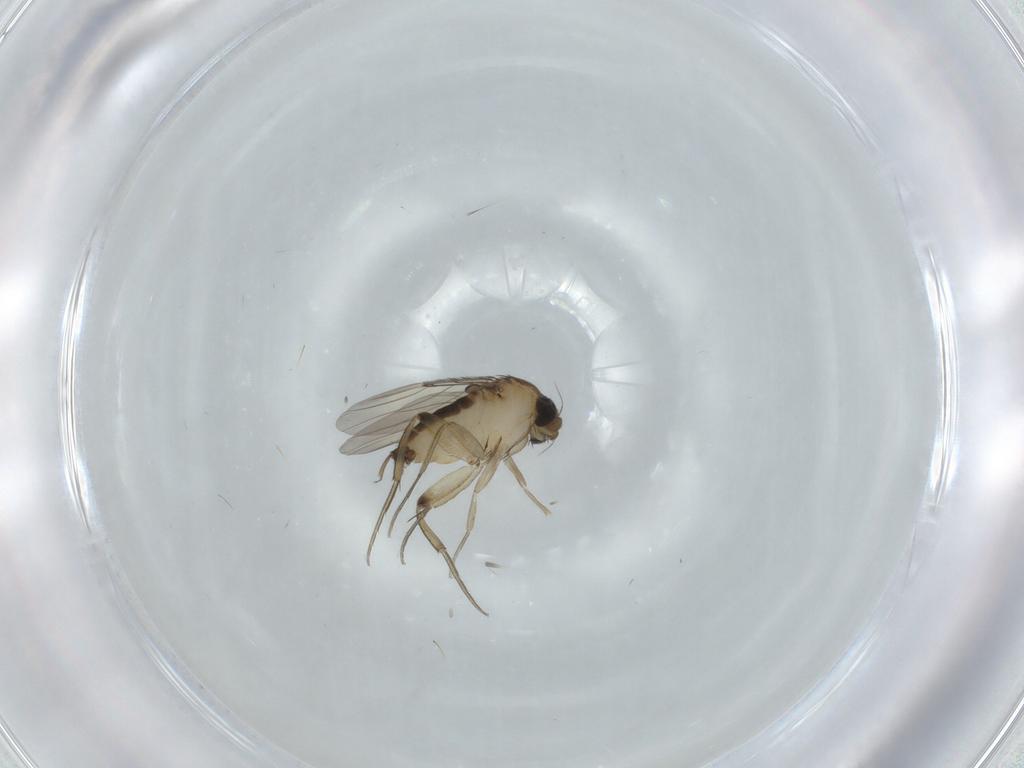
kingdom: Animalia
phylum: Arthropoda
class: Insecta
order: Diptera
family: Phoridae
